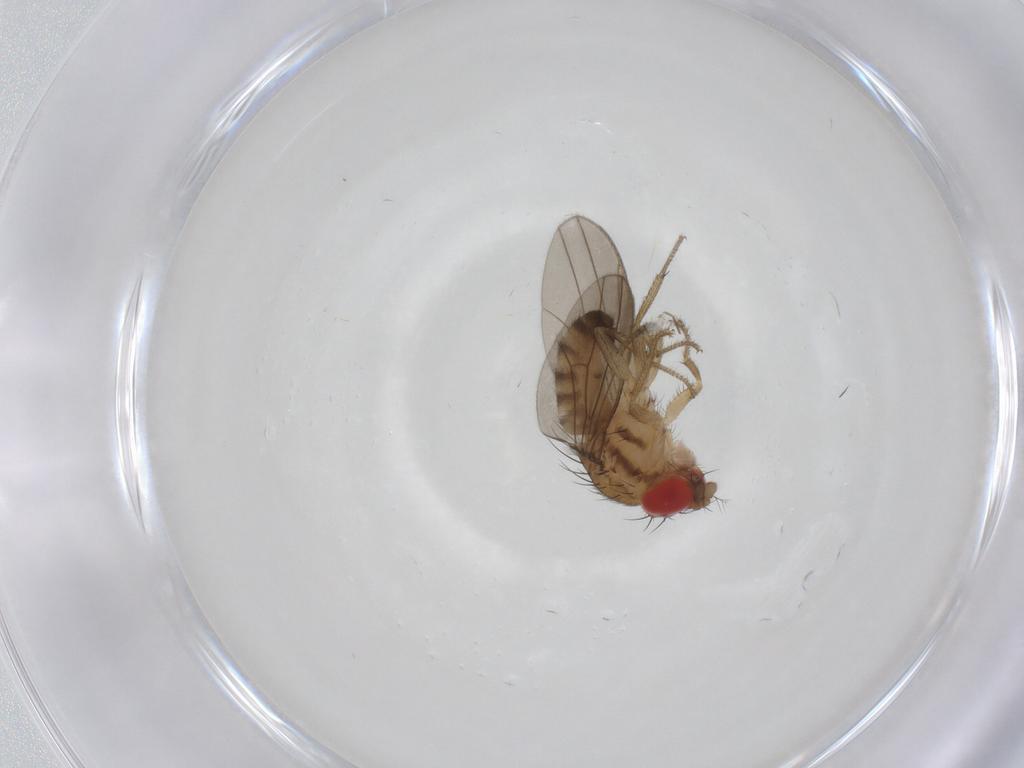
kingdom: Animalia
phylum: Arthropoda
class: Insecta
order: Diptera
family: Drosophilidae
